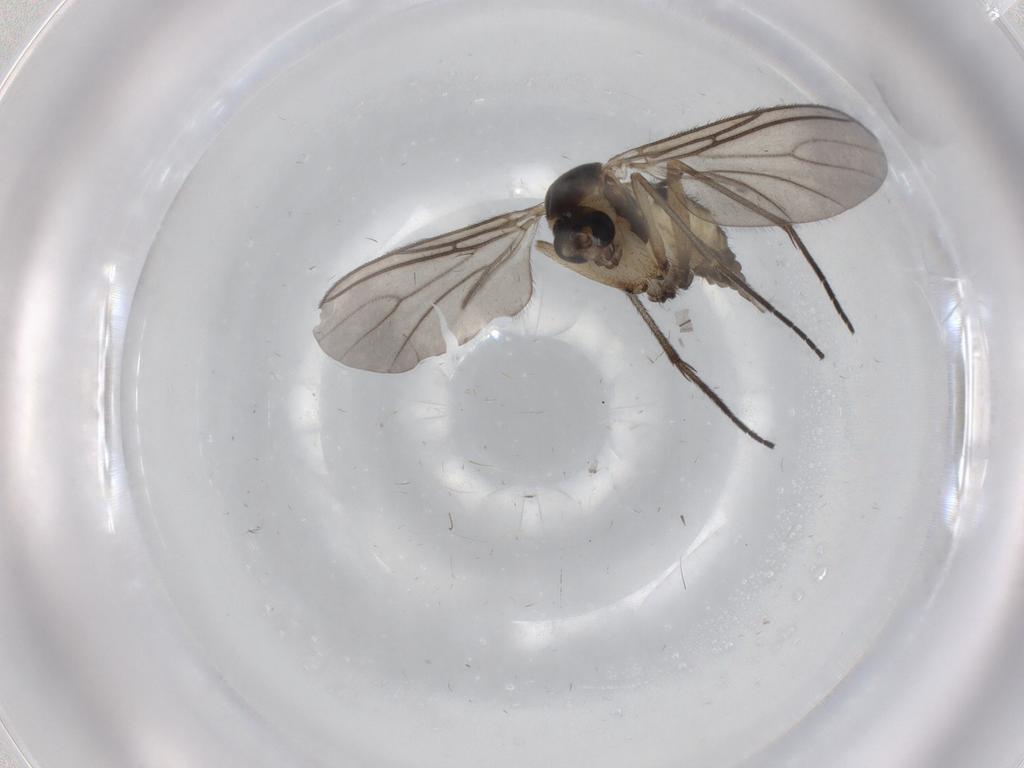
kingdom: Animalia
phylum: Arthropoda
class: Insecta
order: Diptera
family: Sciaridae
